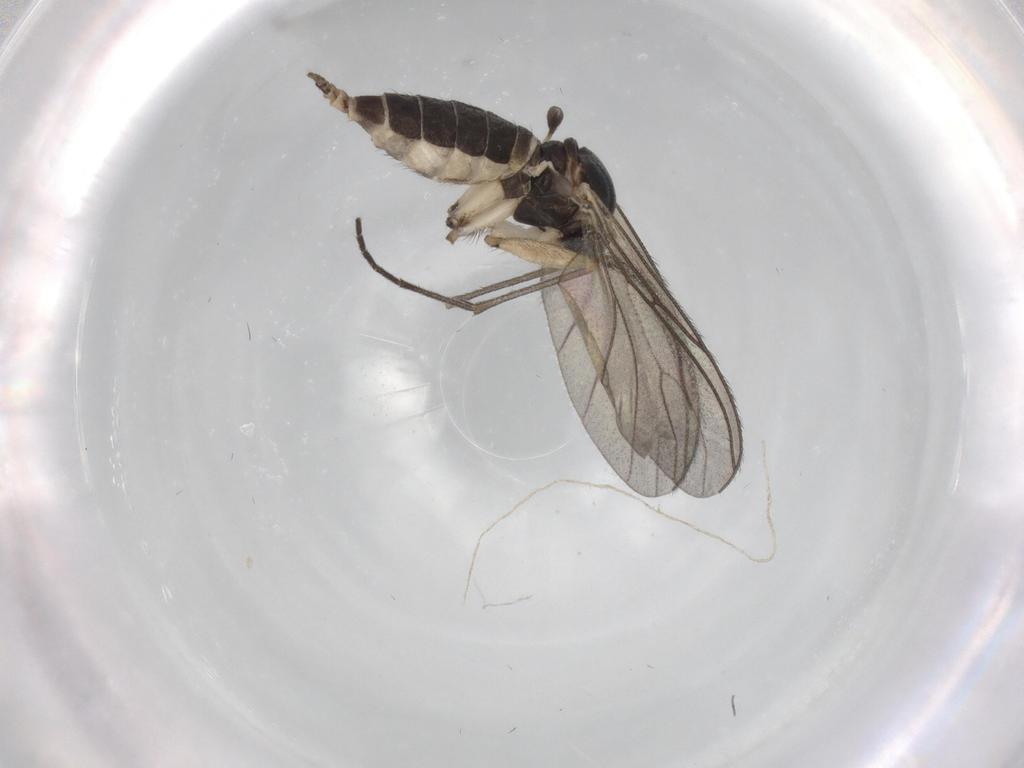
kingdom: Animalia
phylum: Arthropoda
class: Insecta
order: Diptera
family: Sciaridae
